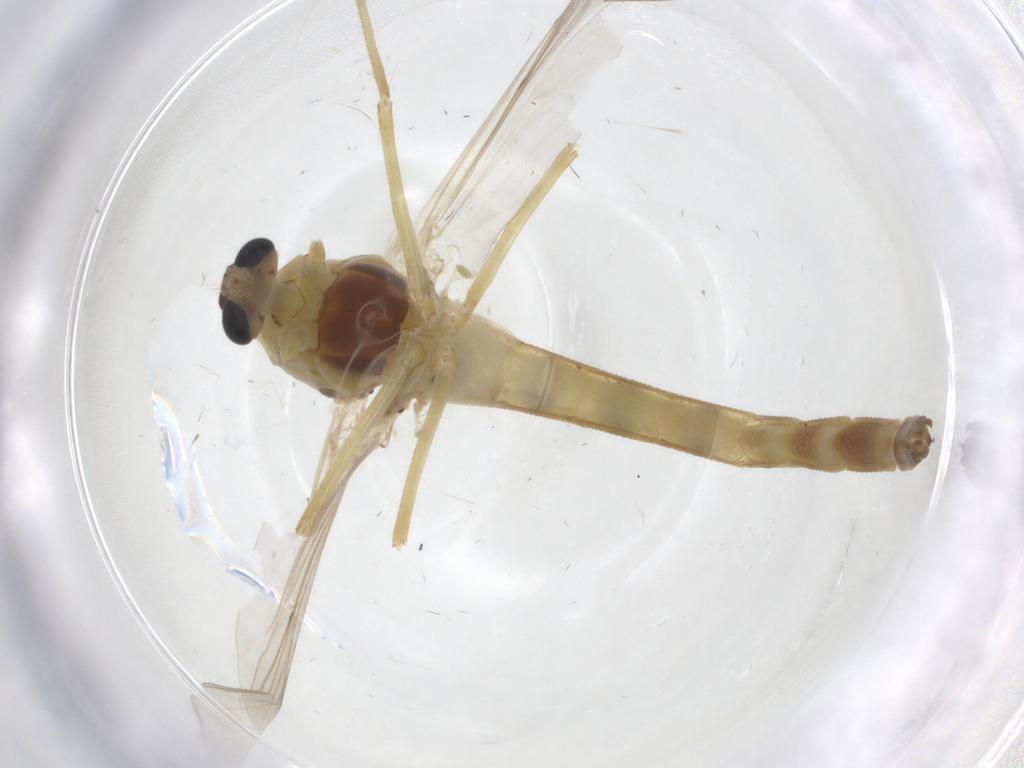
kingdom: Animalia
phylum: Arthropoda
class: Insecta
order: Diptera
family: Chironomidae
